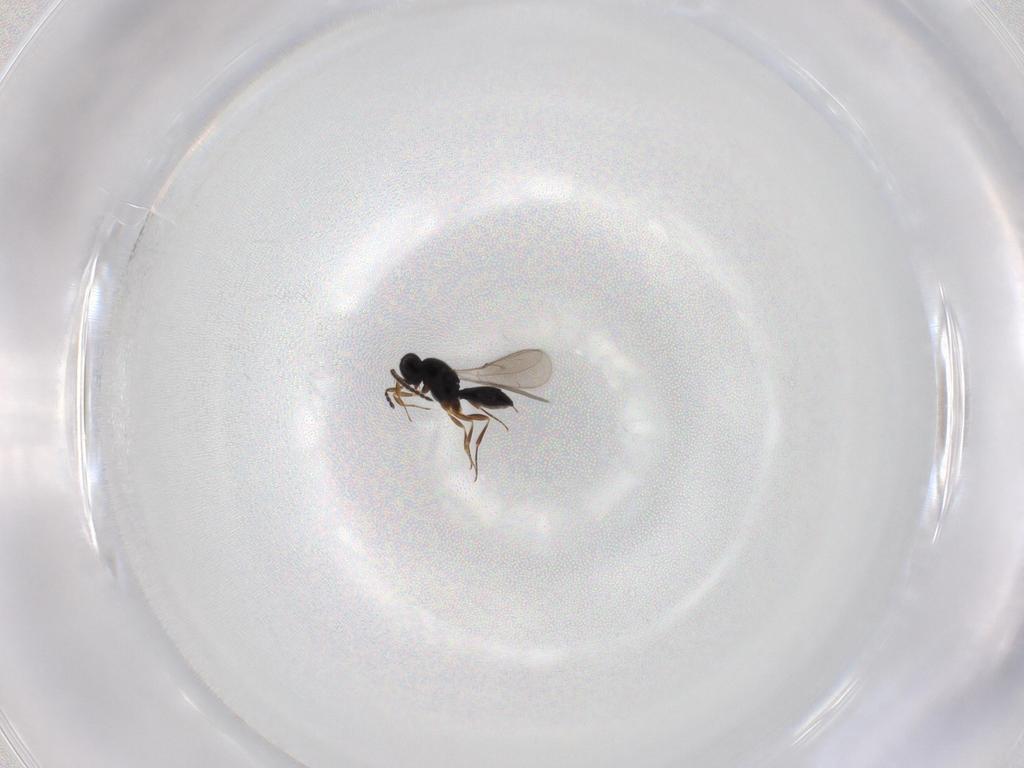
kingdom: Animalia
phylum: Arthropoda
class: Insecta
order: Hymenoptera
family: Scelionidae
